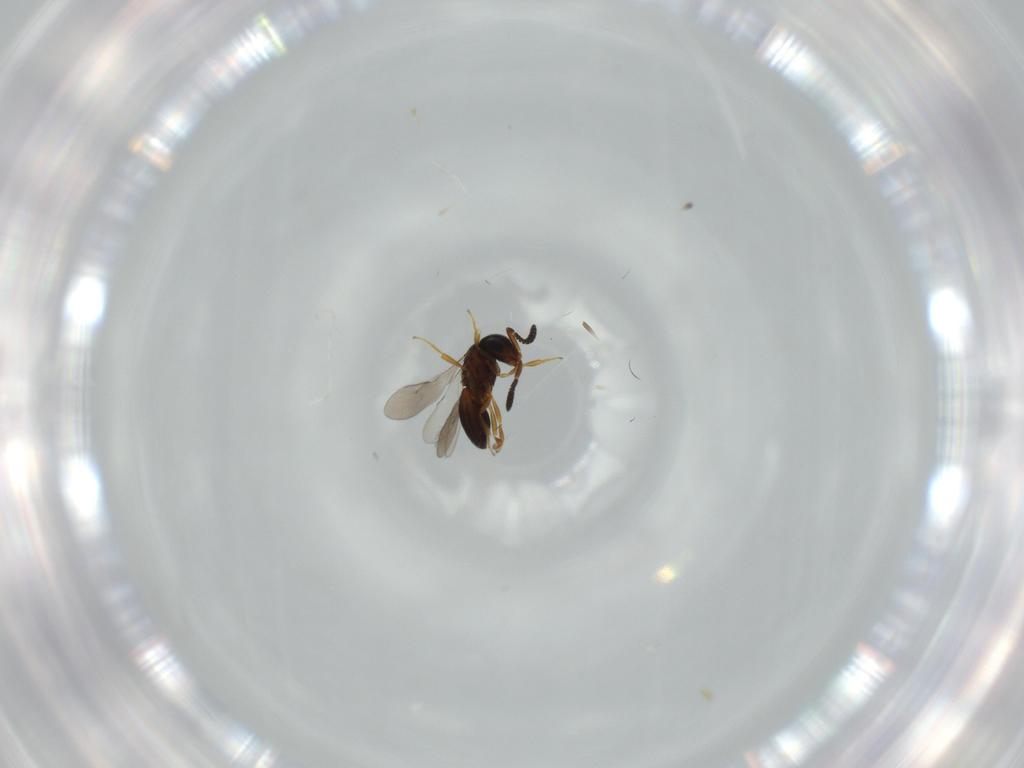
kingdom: Animalia
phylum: Arthropoda
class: Insecta
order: Hymenoptera
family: Scelionidae
